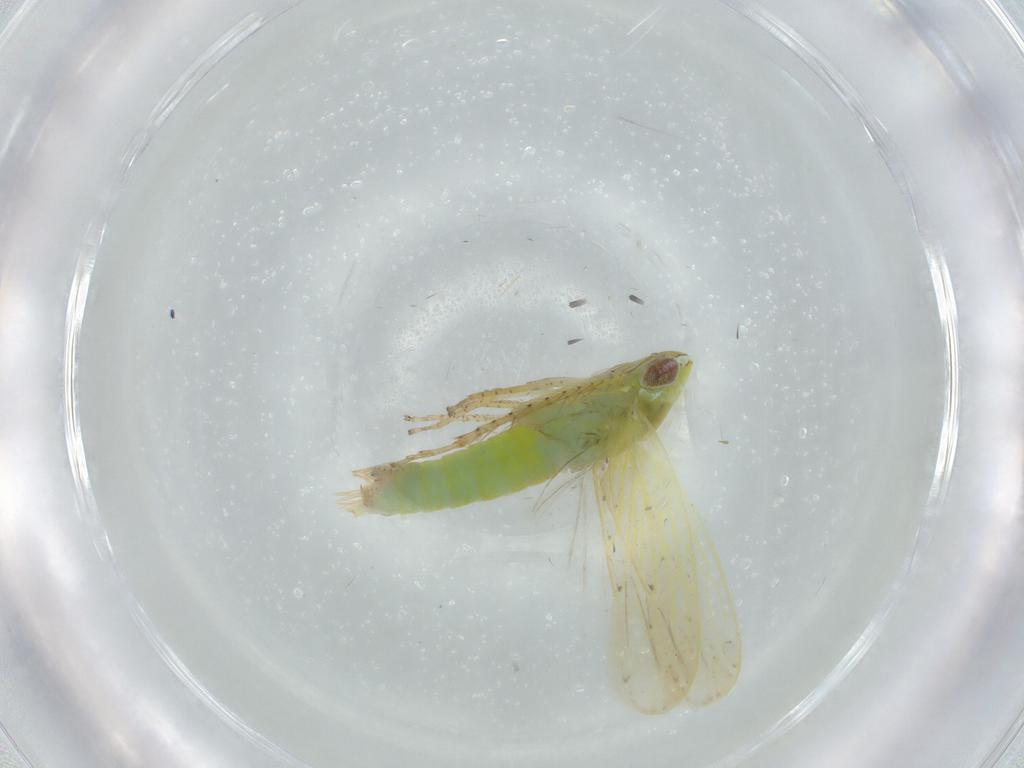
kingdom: Animalia
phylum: Arthropoda
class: Insecta
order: Hemiptera
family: Cicadellidae
